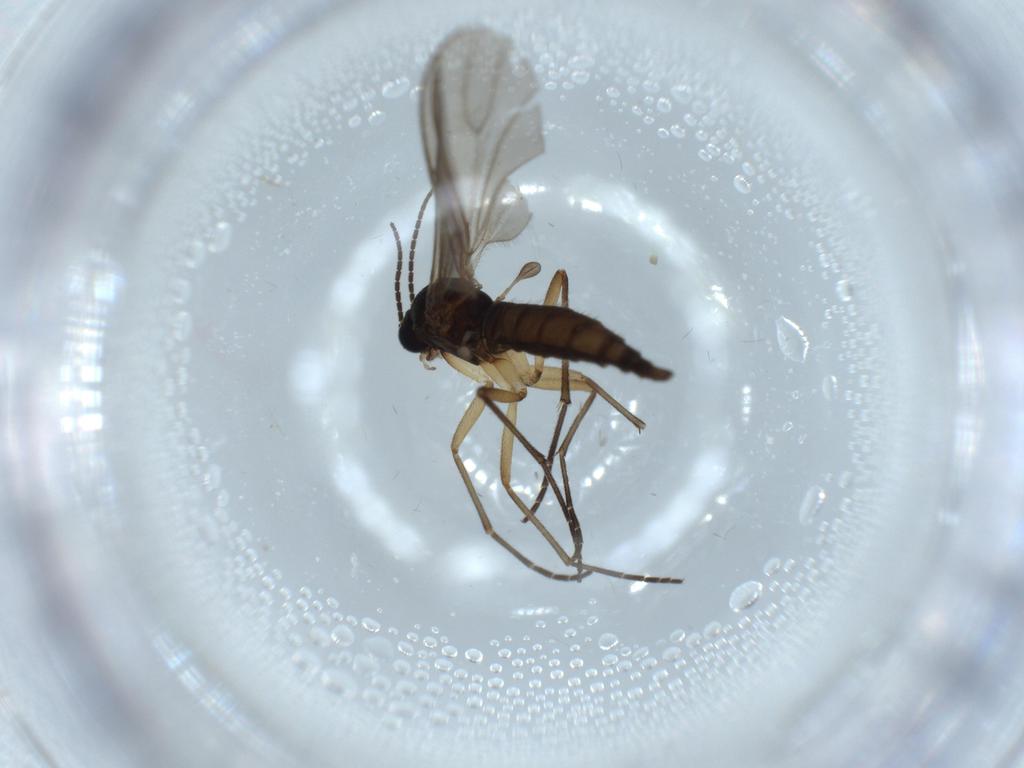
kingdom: Animalia
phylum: Arthropoda
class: Insecta
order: Diptera
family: Sciaridae
